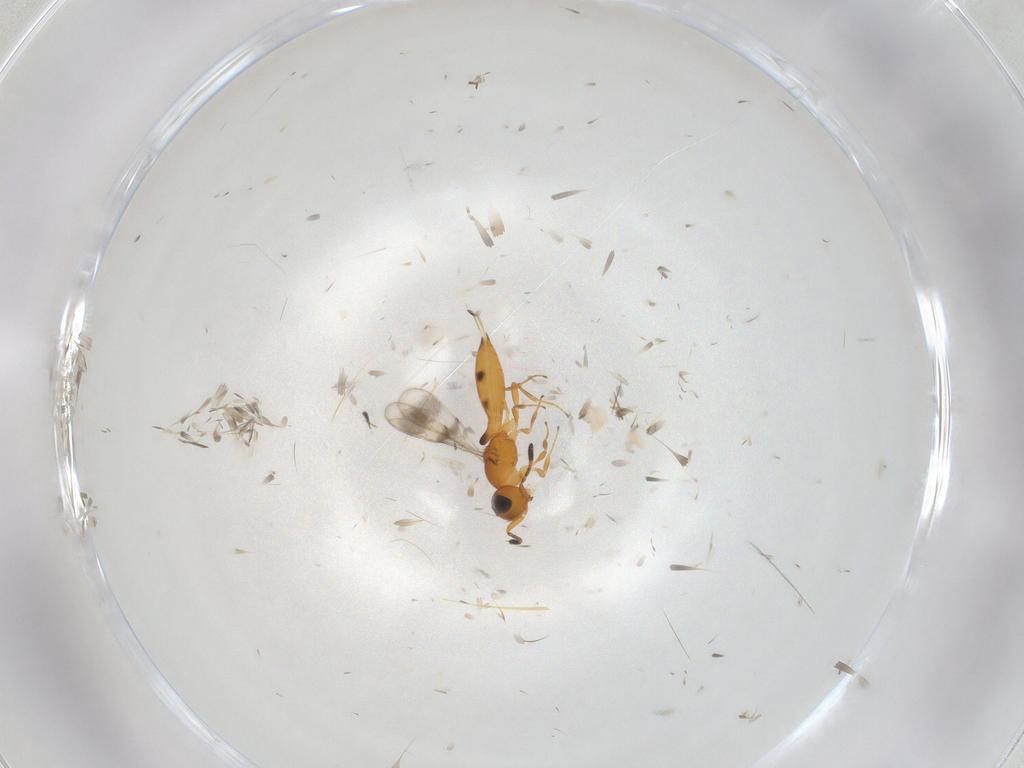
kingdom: Animalia
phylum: Arthropoda
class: Insecta
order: Hymenoptera
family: Scelionidae
